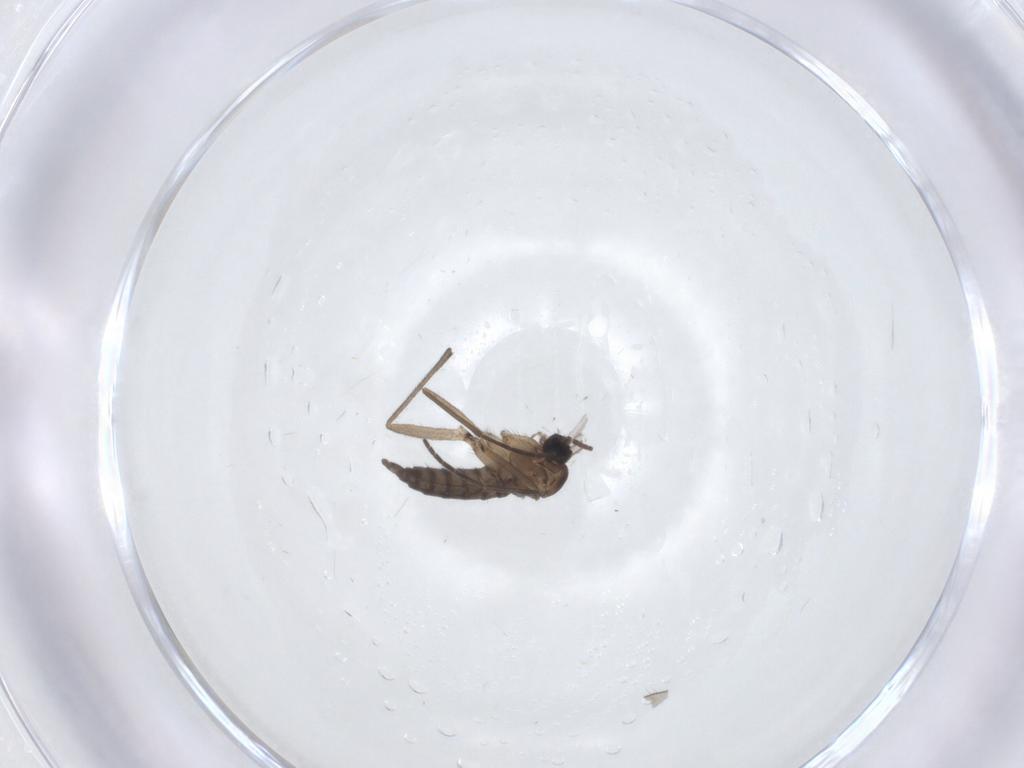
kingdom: Animalia
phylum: Arthropoda
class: Insecta
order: Diptera
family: Sciaridae
